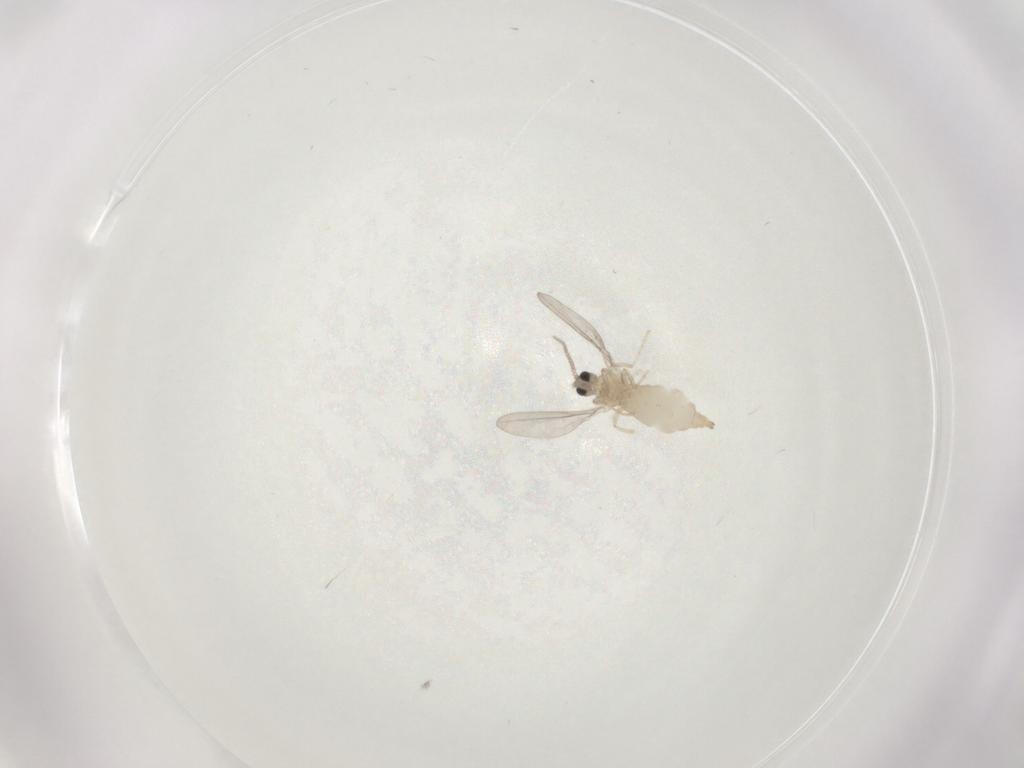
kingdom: Animalia
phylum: Arthropoda
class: Insecta
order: Diptera
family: Cecidomyiidae
